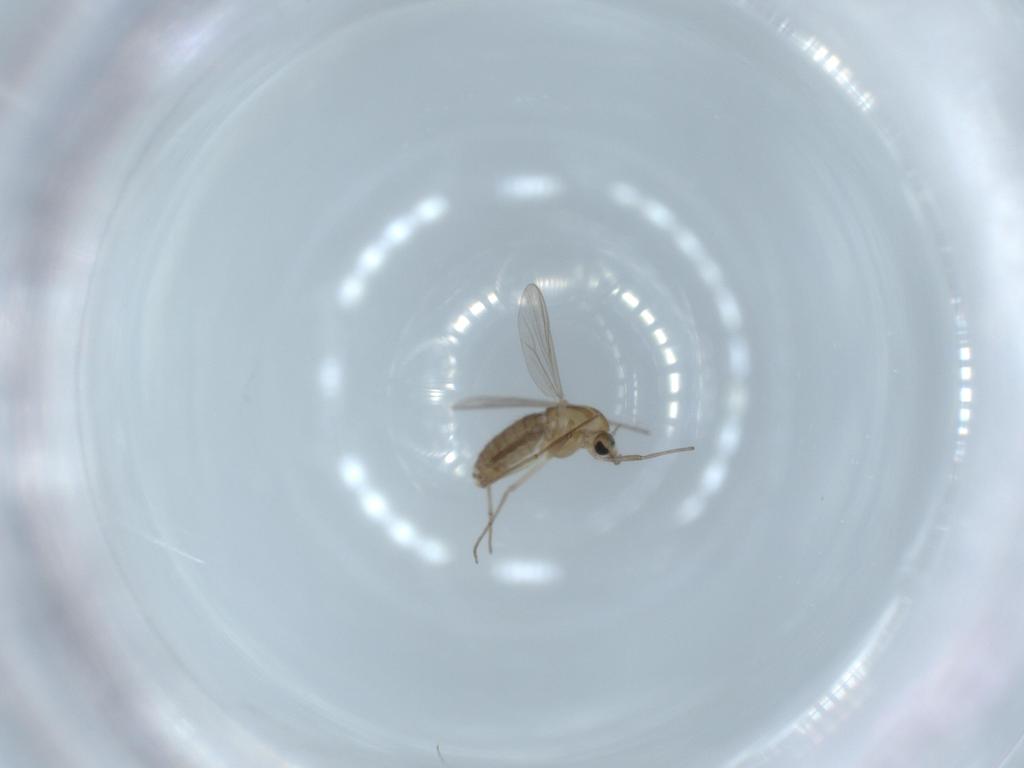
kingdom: Animalia
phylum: Arthropoda
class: Insecta
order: Diptera
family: Chironomidae
